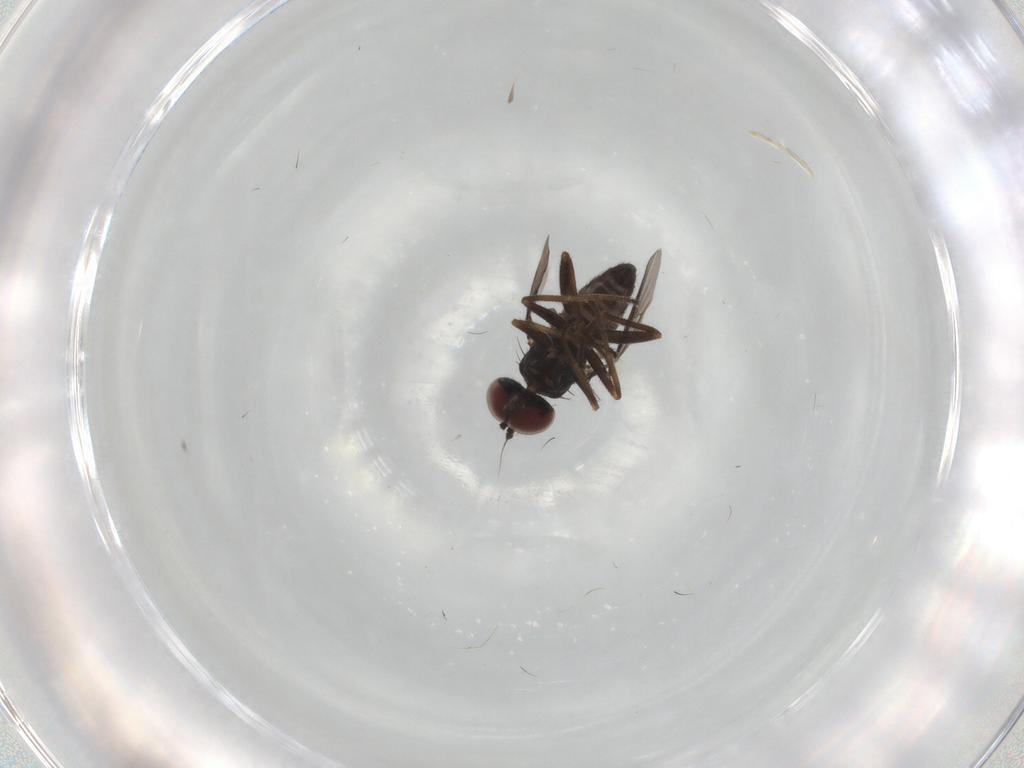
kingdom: Animalia
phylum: Arthropoda
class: Insecta
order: Diptera
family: Dolichopodidae
